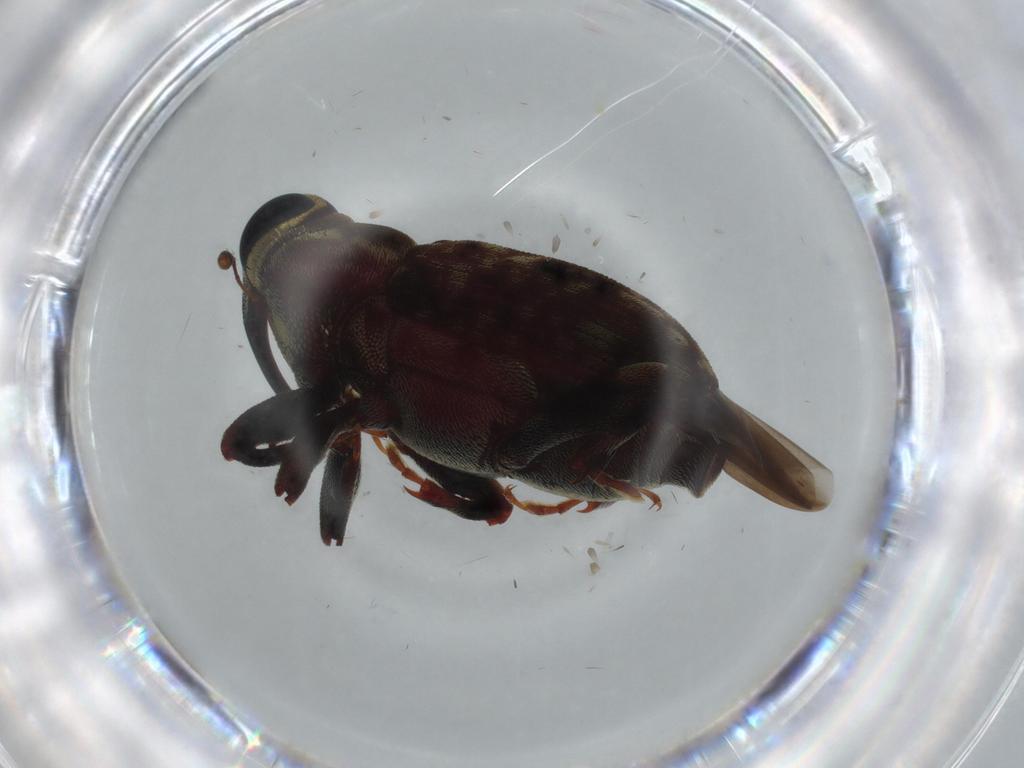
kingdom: Animalia
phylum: Arthropoda
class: Insecta
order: Coleoptera
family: Curculionidae
